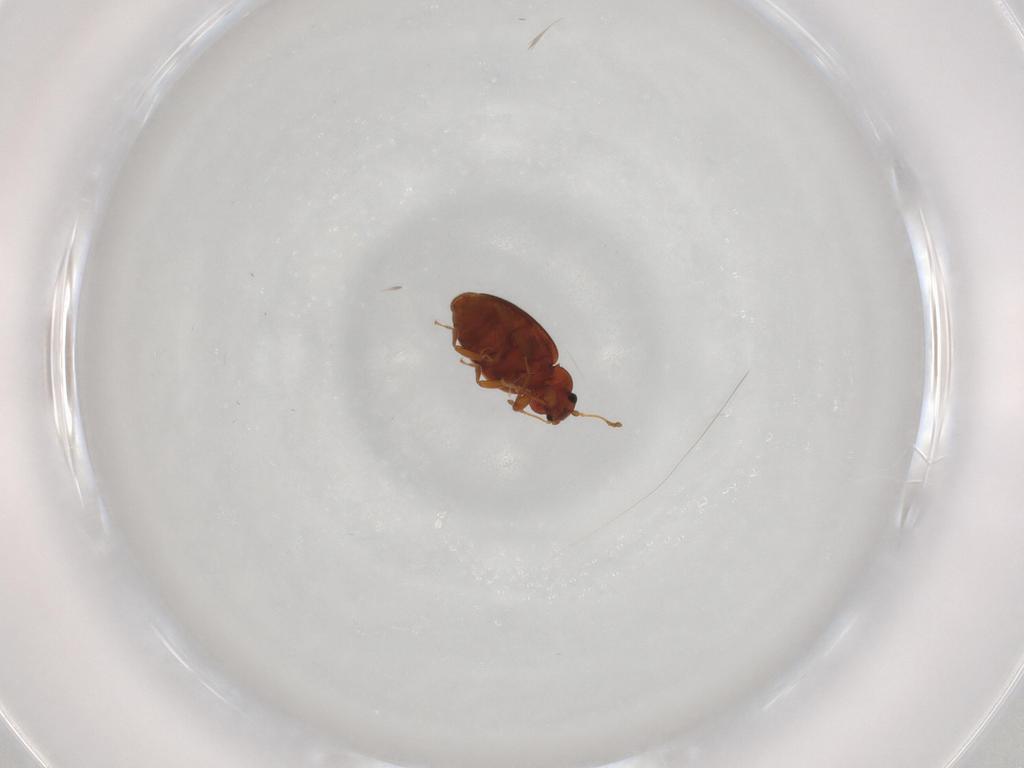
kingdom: Animalia
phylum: Arthropoda
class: Insecta
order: Coleoptera
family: Latridiidae
